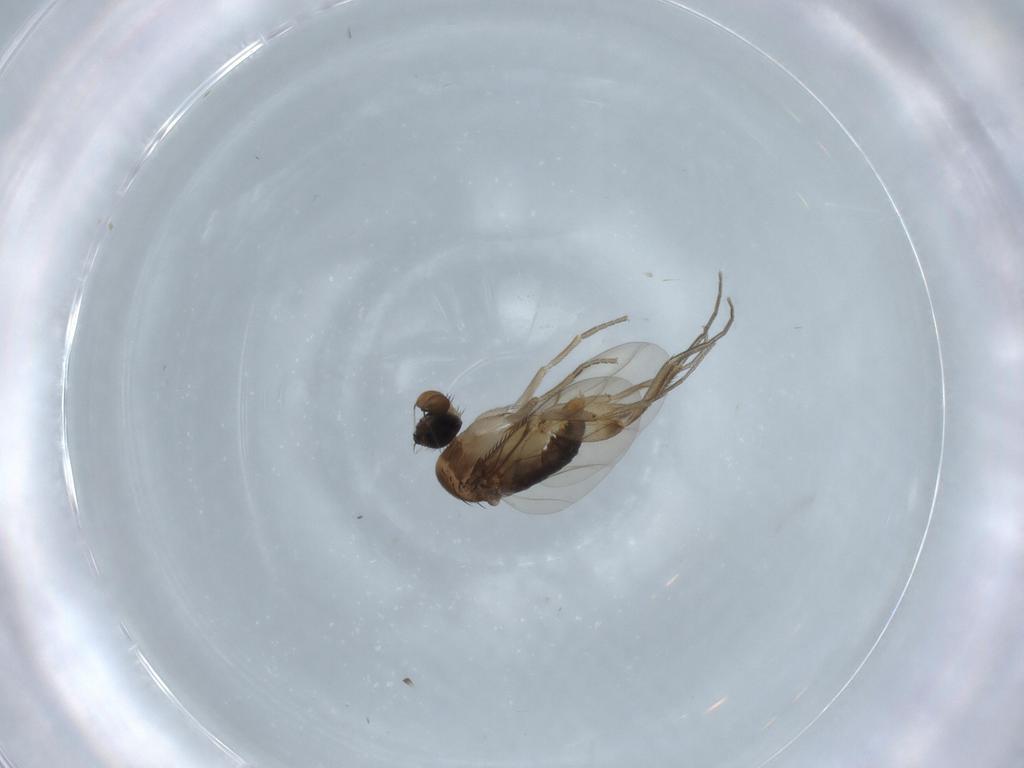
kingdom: Animalia
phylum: Arthropoda
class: Insecta
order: Diptera
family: Phoridae
